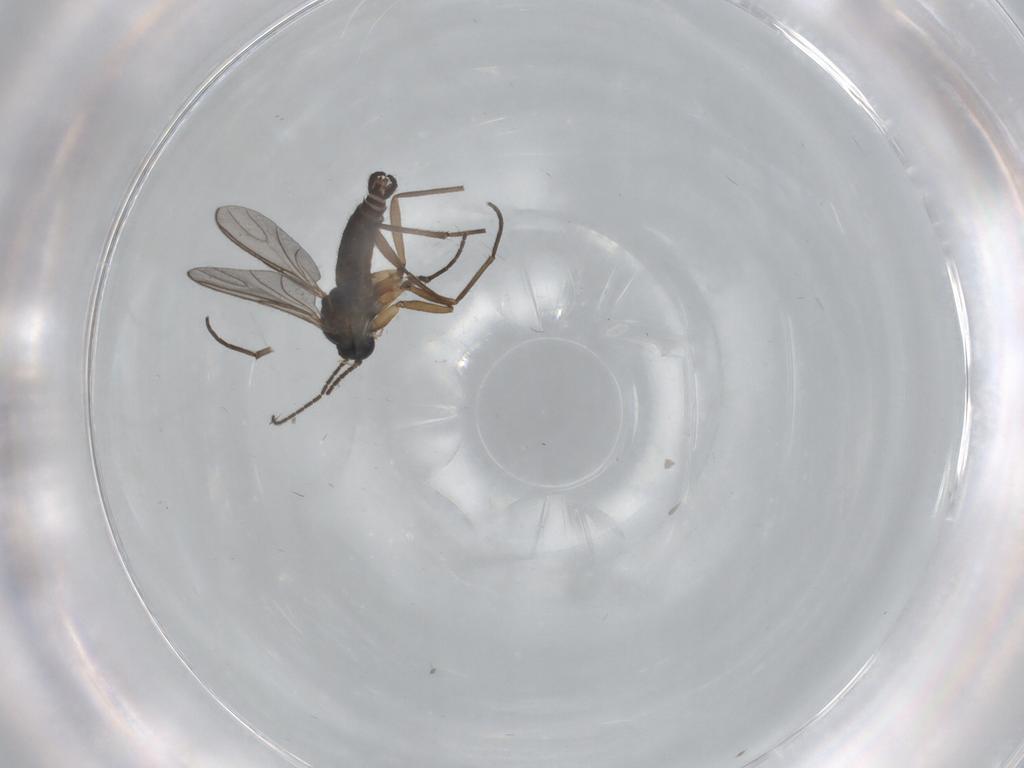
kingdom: Animalia
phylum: Arthropoda
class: Insecta
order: Diptera
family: Sciaridae
